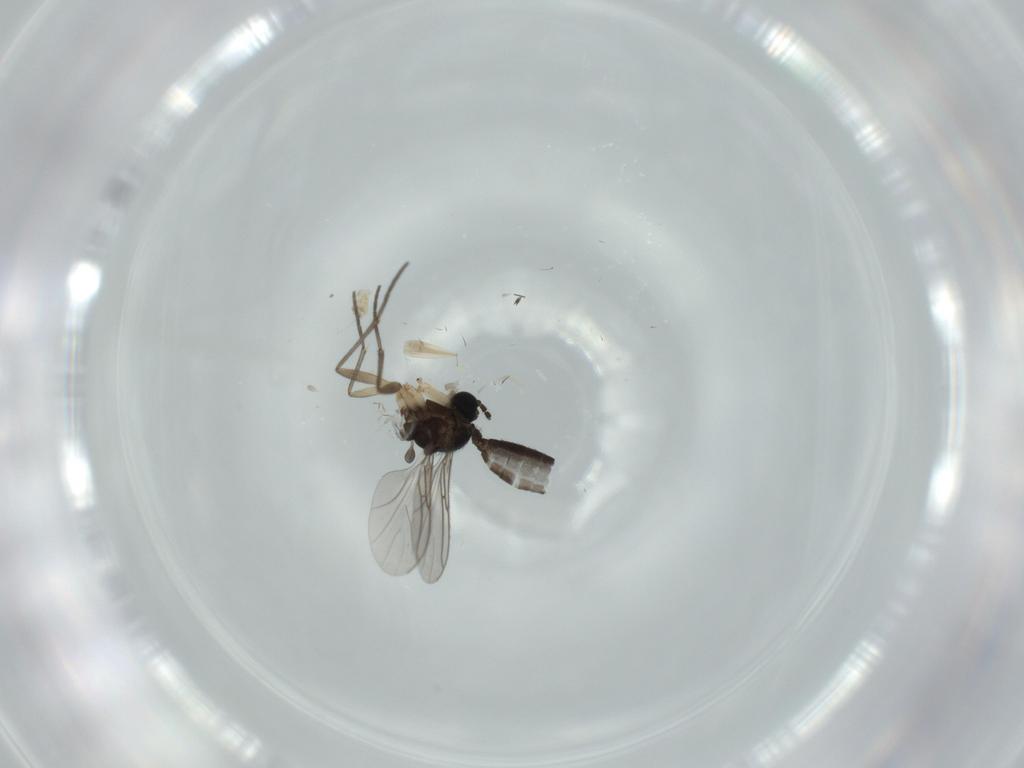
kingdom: Animalia
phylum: Arthropoda
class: Insecta
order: Diptera
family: Sciaridae
